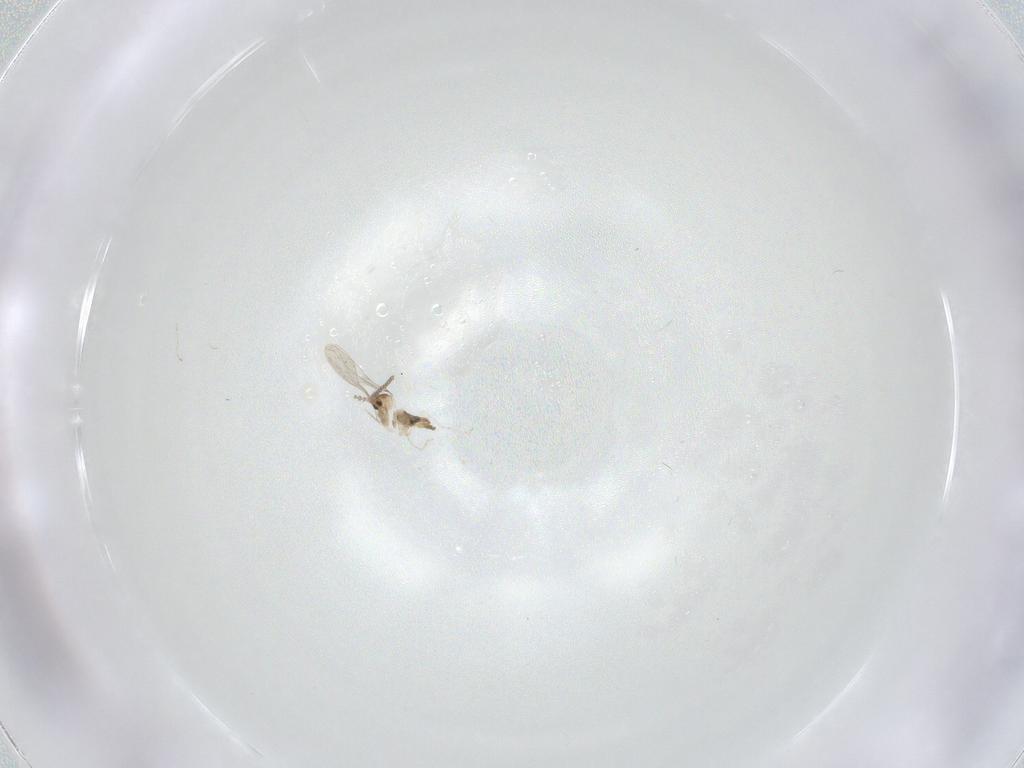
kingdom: Animalia
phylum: Arthropoda
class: Insecta
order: Diptera
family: Cecidomyiidae
